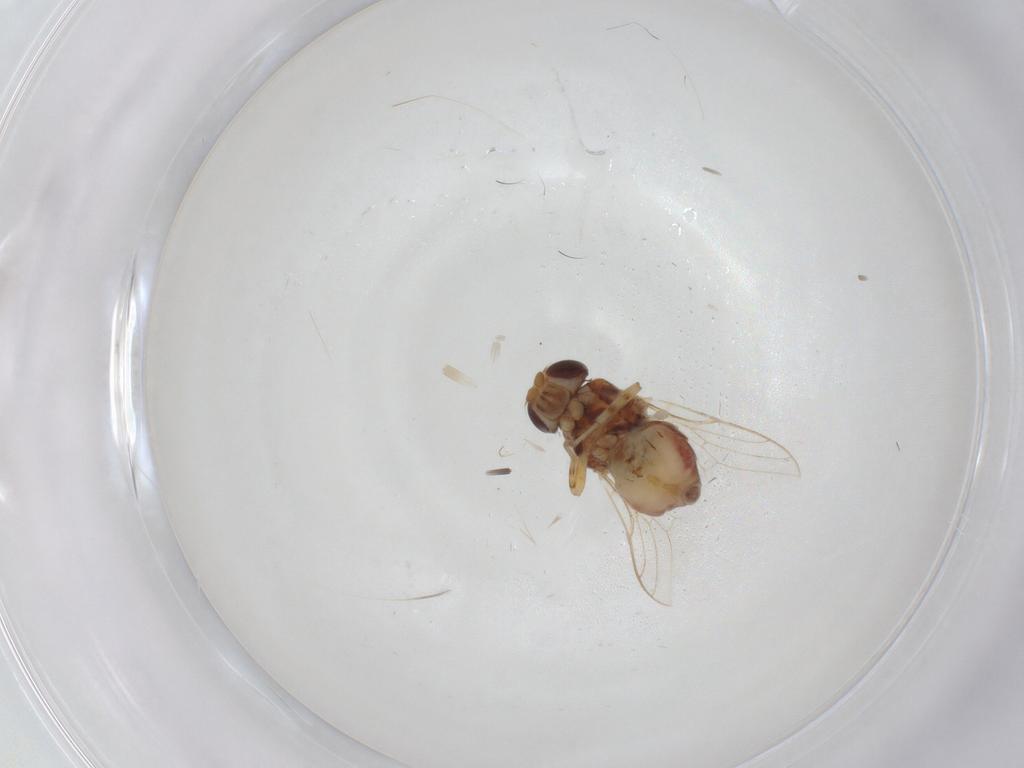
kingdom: Animalia
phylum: Arthropoda
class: Insecta
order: Diptera
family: Chloropidae
